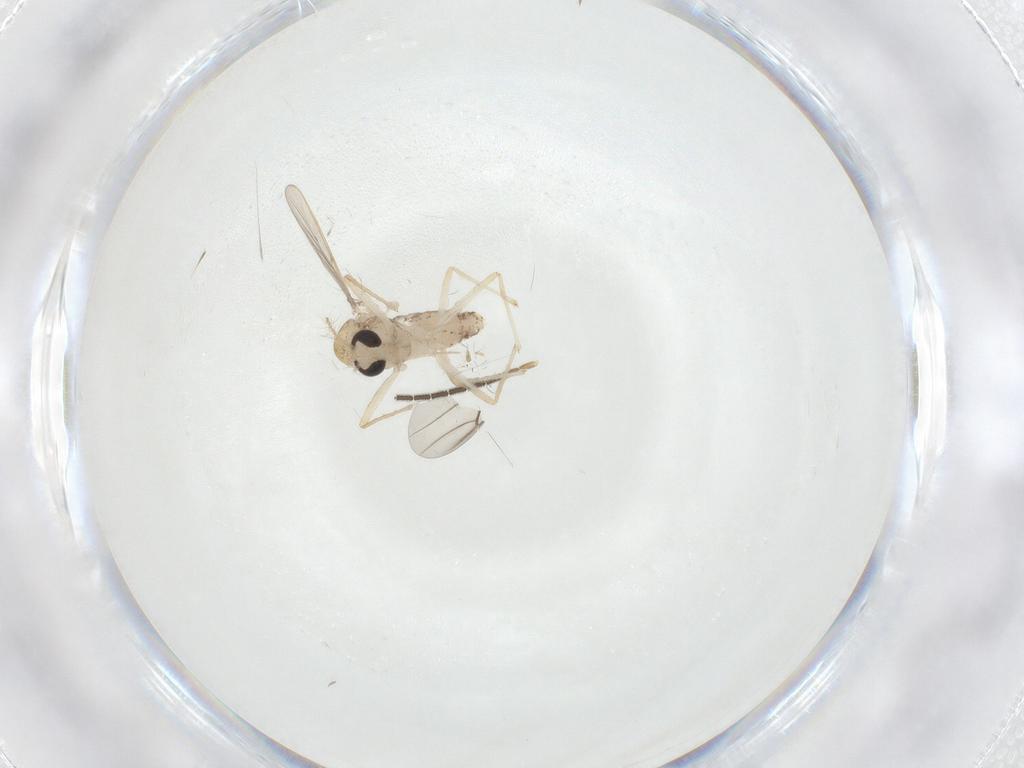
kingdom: Animalia
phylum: Arthropoda
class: Insecta
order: Diptera
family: Chironomidae
